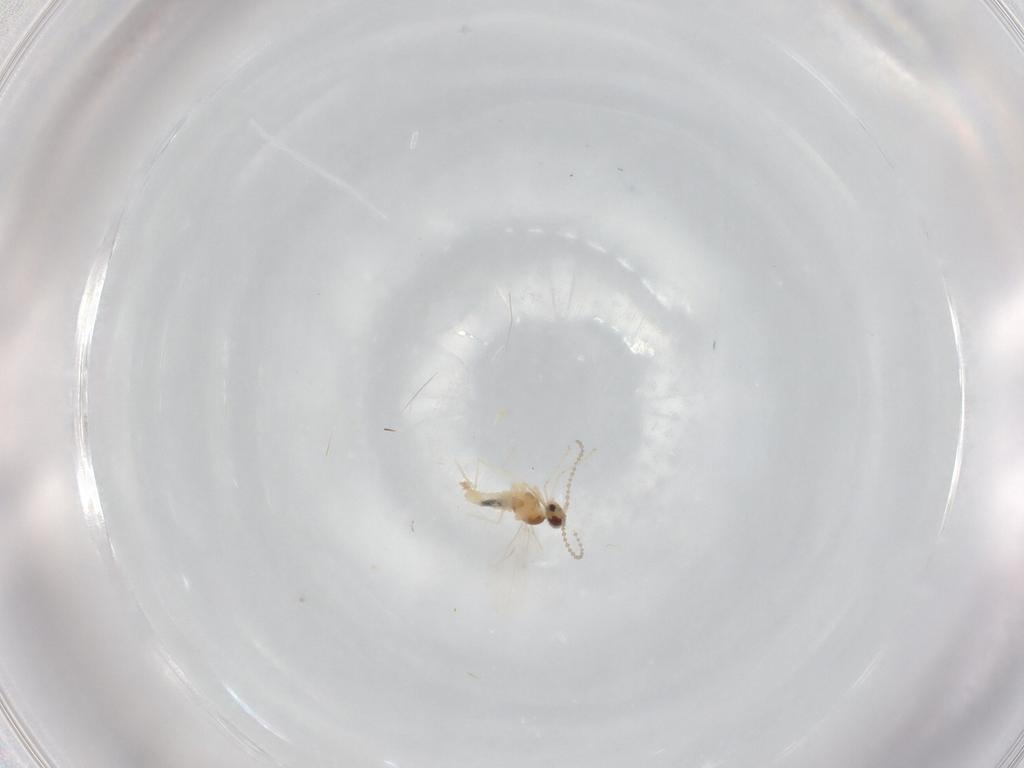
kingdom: Animalia
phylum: Arthropoda
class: Insecta
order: Diptera
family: Cecidomyiidae
